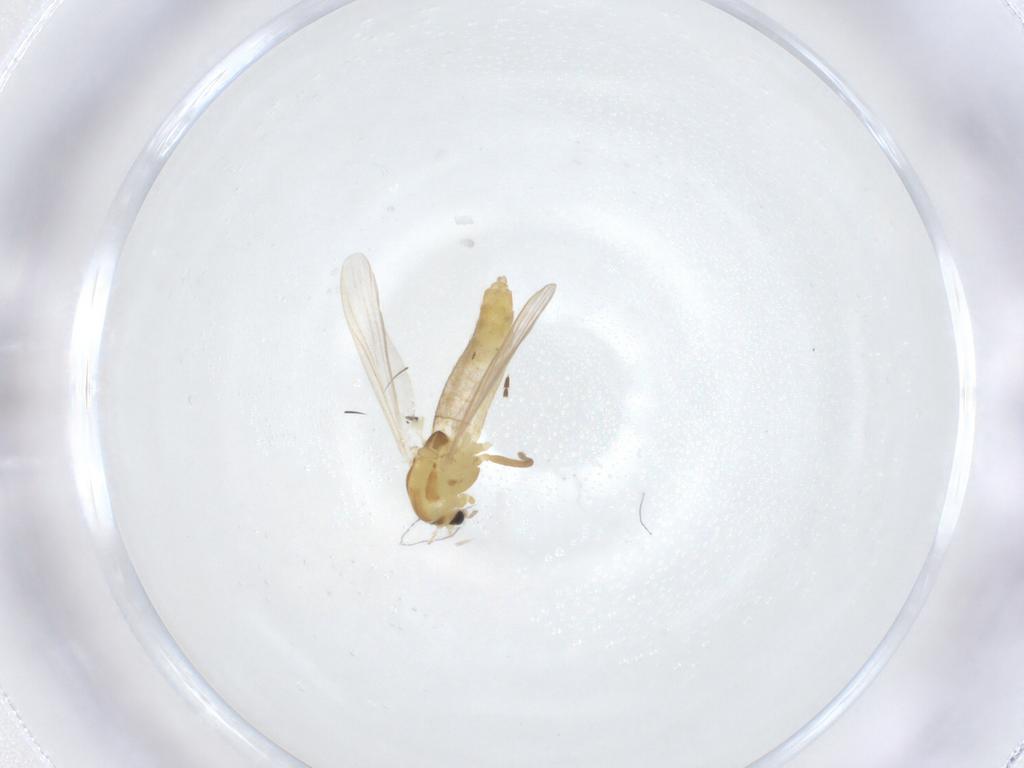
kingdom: Animalia
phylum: Arthropoda
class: Insecta
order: Diptera
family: Chironomidae
